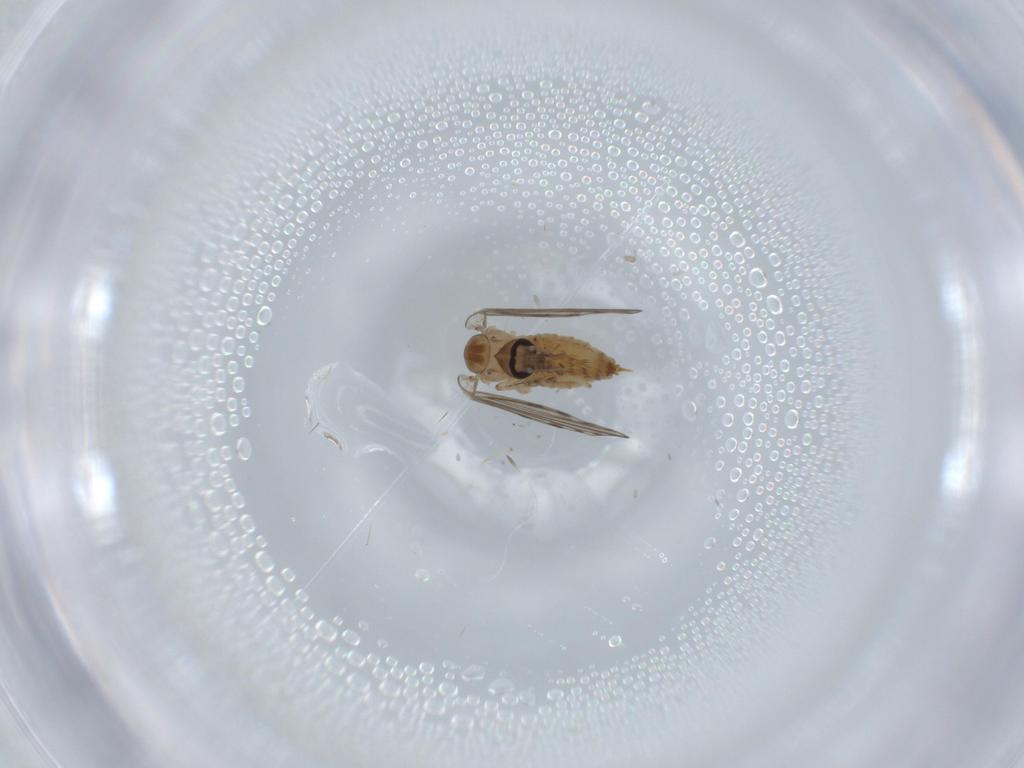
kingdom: Animalia
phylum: Arthropoda
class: Insecta
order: Diptera
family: Psychodidae
